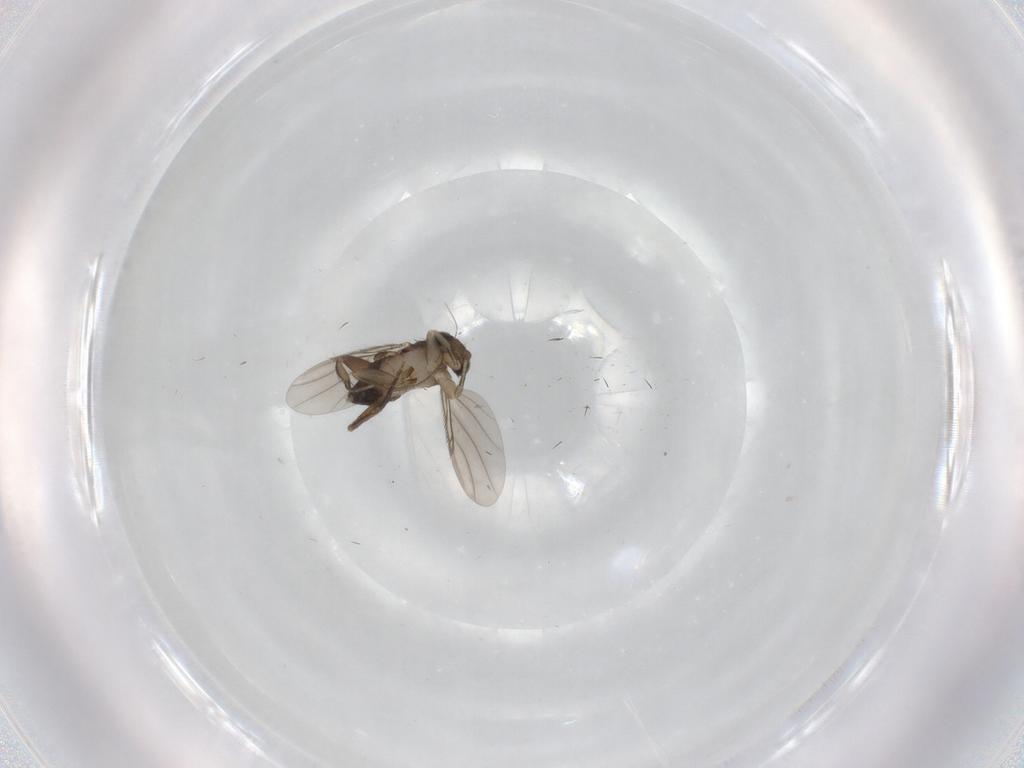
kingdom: Animalia
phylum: Arthropoda
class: Insecta
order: Diptera
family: Phoridae
